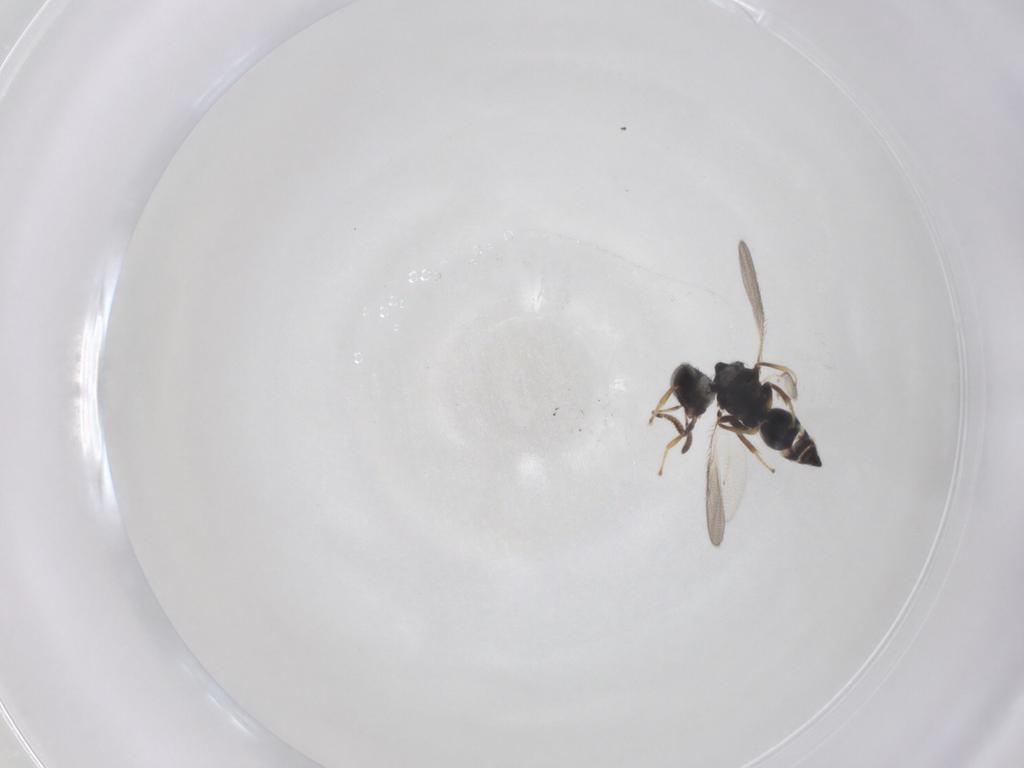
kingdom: Animalia
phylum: Arthropoda
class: Insecta
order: Hymenoptera
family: Pteromalidae
